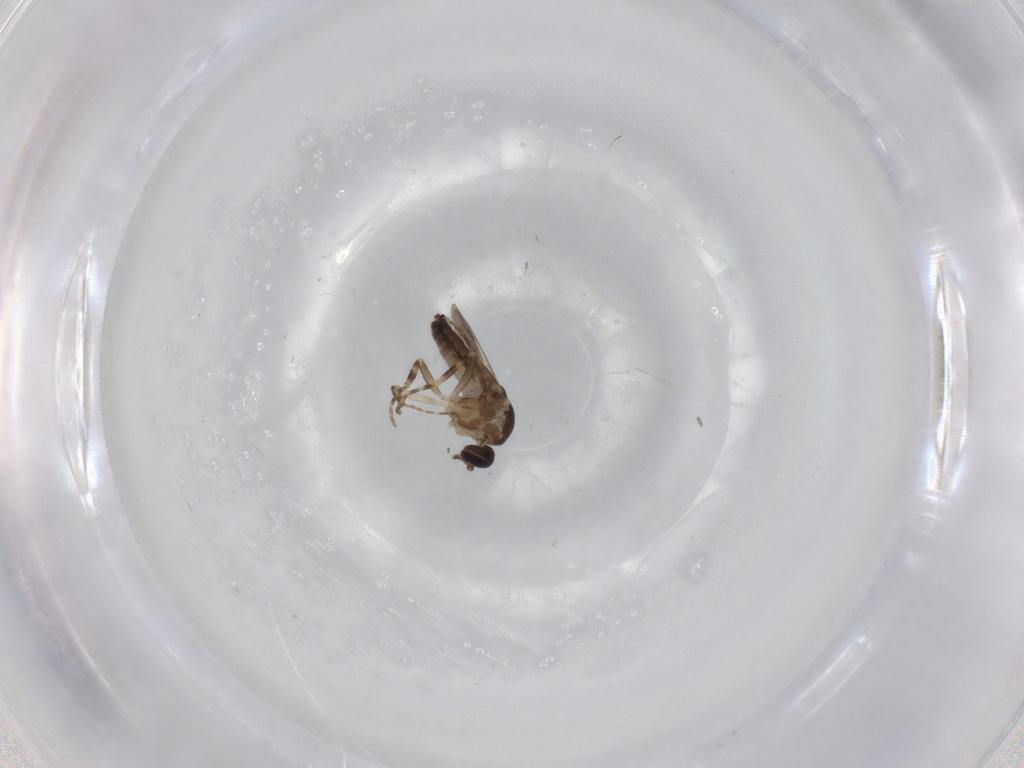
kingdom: Animalia
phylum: Arthropoda
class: Insecta
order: Diptera
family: Ceratopogonidae
